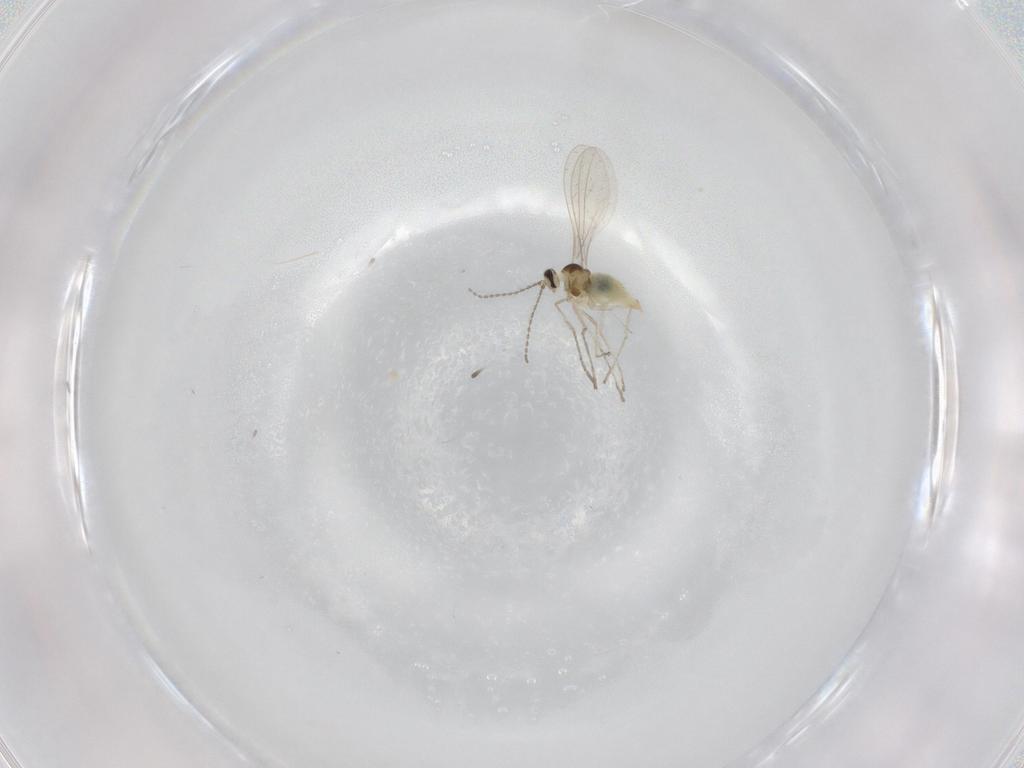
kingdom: Animalia
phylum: Arthropoda
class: Insecta
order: Diptera
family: Cecidomyiidae
